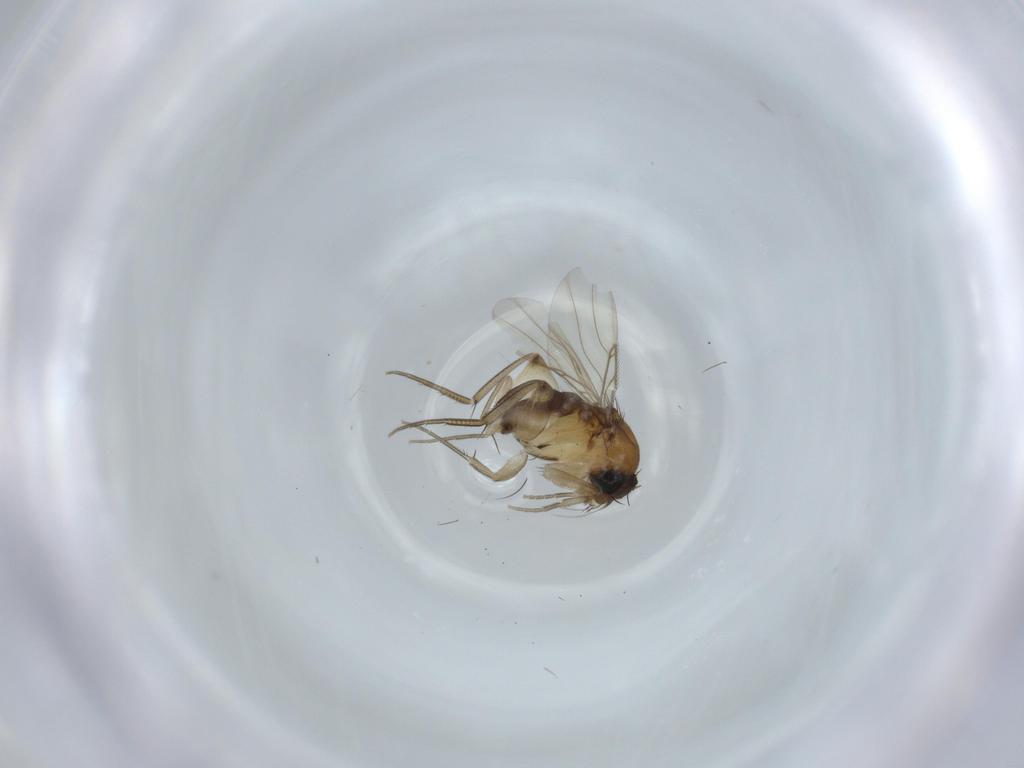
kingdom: Animalia
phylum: Arthropoda
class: Insecta
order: Diptera
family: Phoridae
